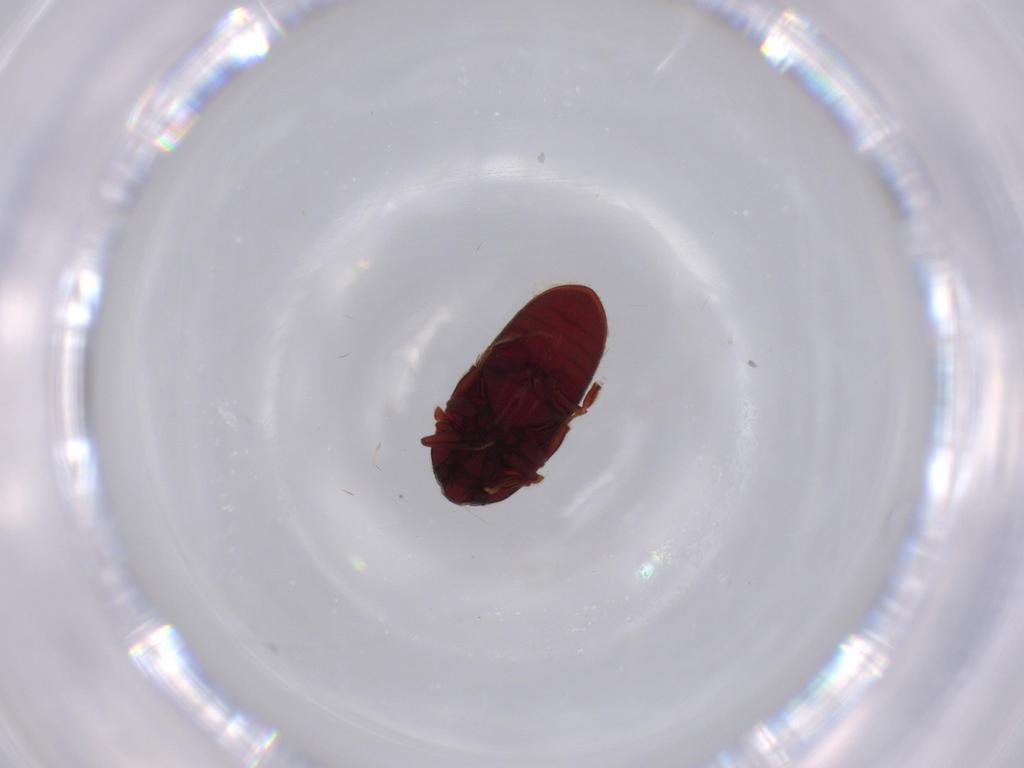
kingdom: Animalia
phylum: Arthropoda
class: Insecta
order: Coleoptera
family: Throscidae
